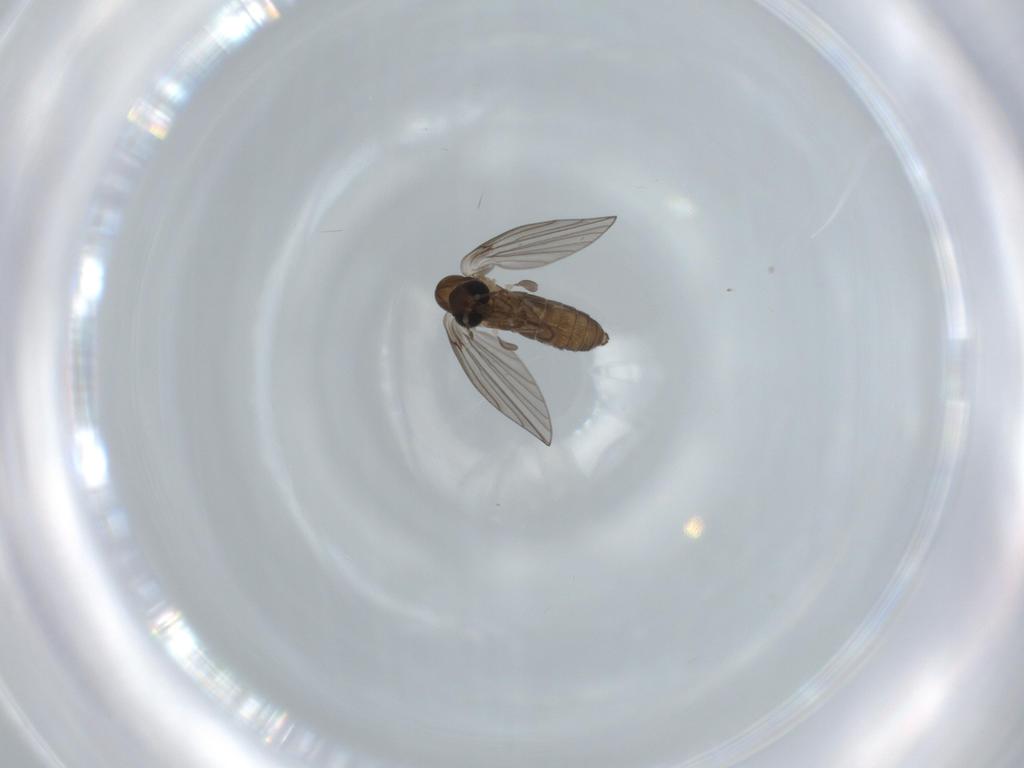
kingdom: Animalia
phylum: Arthropoda
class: Insecta
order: Diptera
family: Psychodidae
